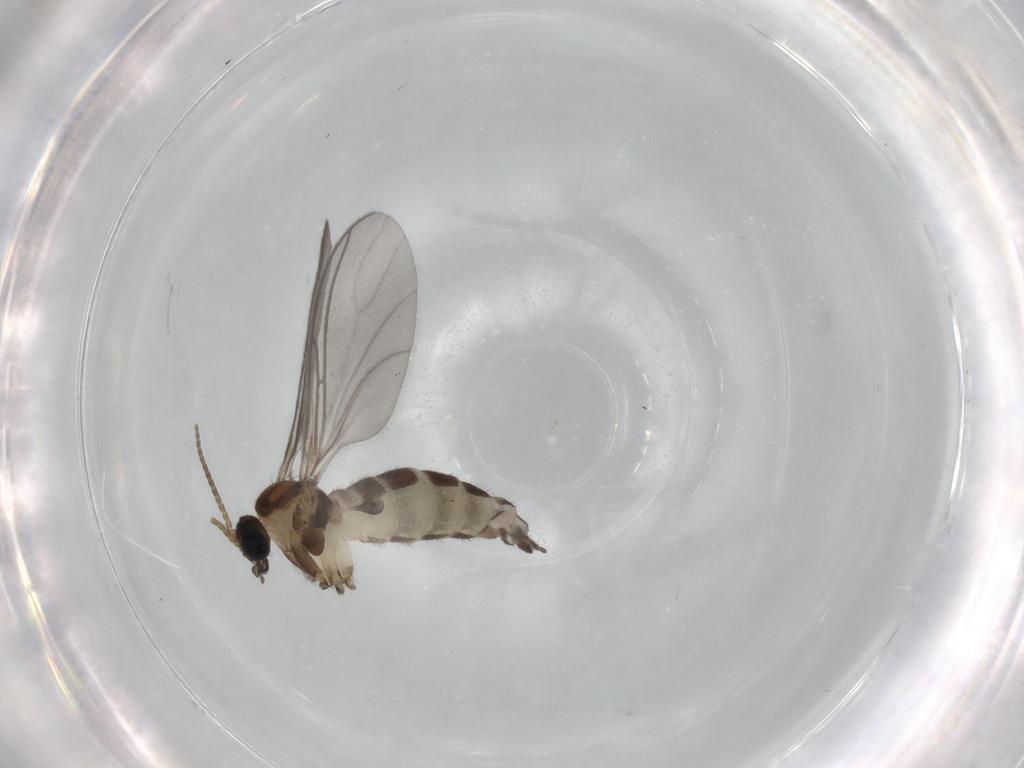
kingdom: Animalia
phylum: Arthropoda
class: Insecta
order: Diptera
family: Sciaridae
